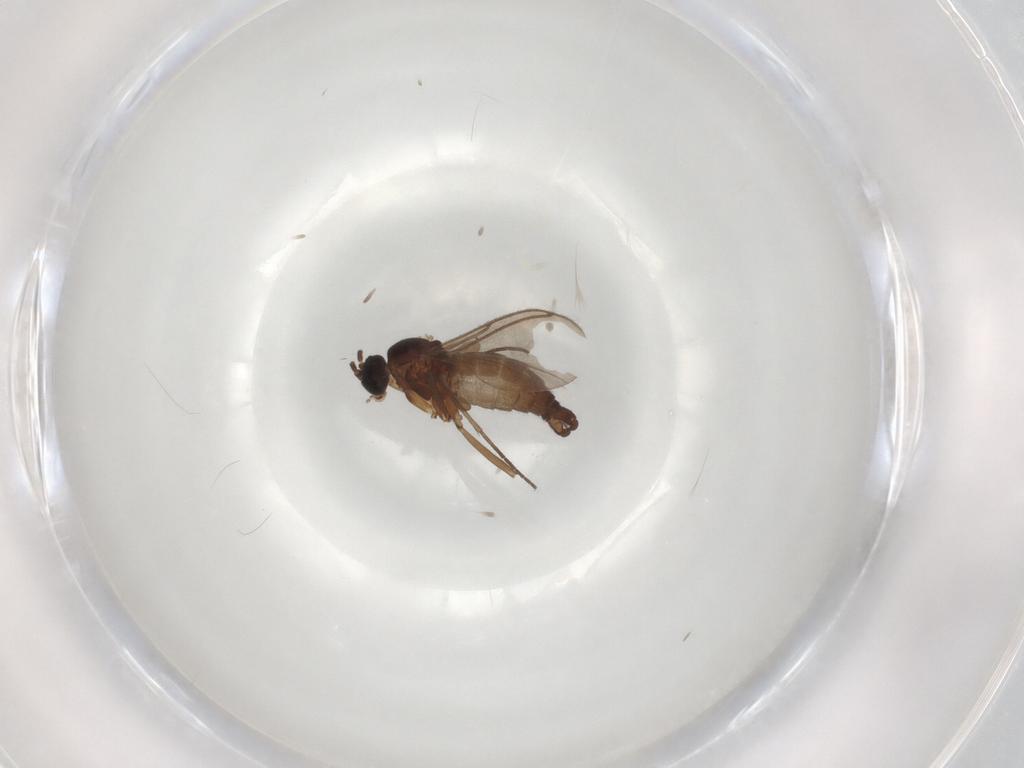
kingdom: Animalia
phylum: Arthropoda
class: Insecta
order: Diptera
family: Sciaridae
